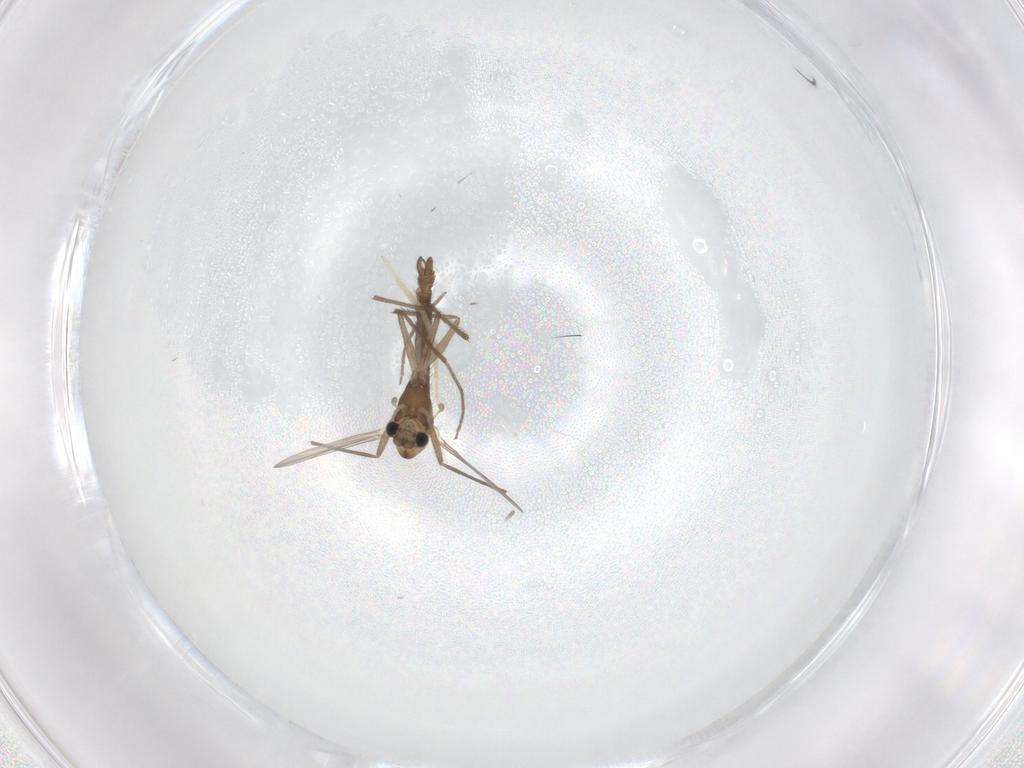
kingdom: Animalia
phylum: Arthropoda
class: Insecta
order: Diptera
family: Chironomidae
